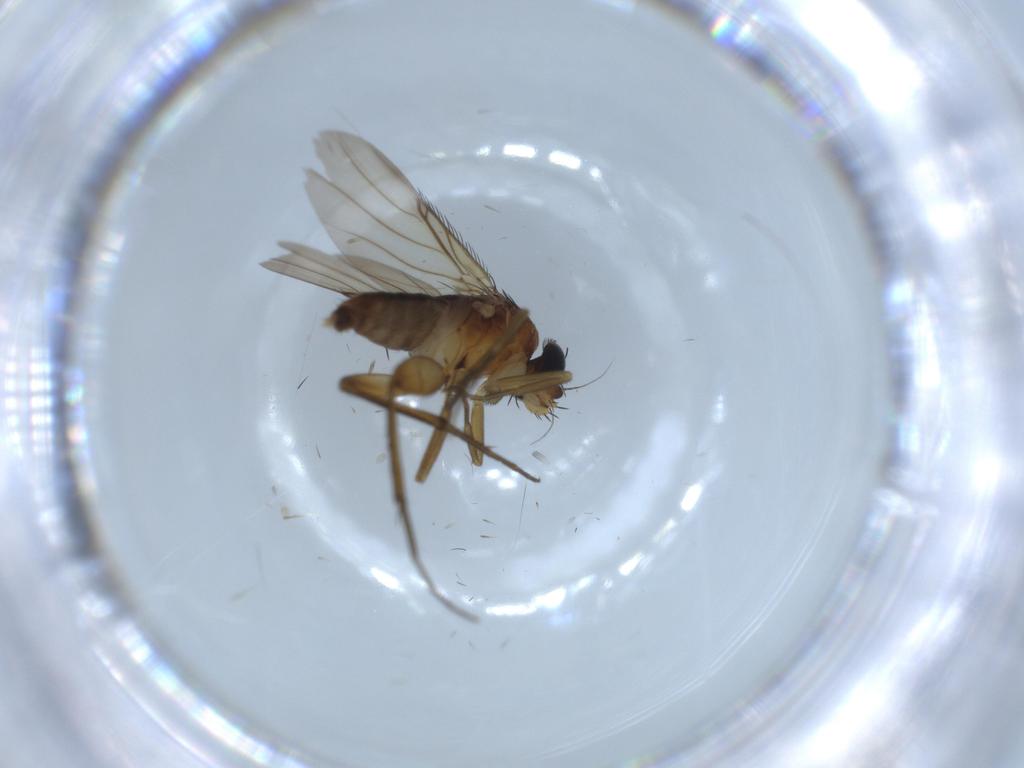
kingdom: Animalia
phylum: Arthropoda
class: Insecta
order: Diptera
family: Phoridae
